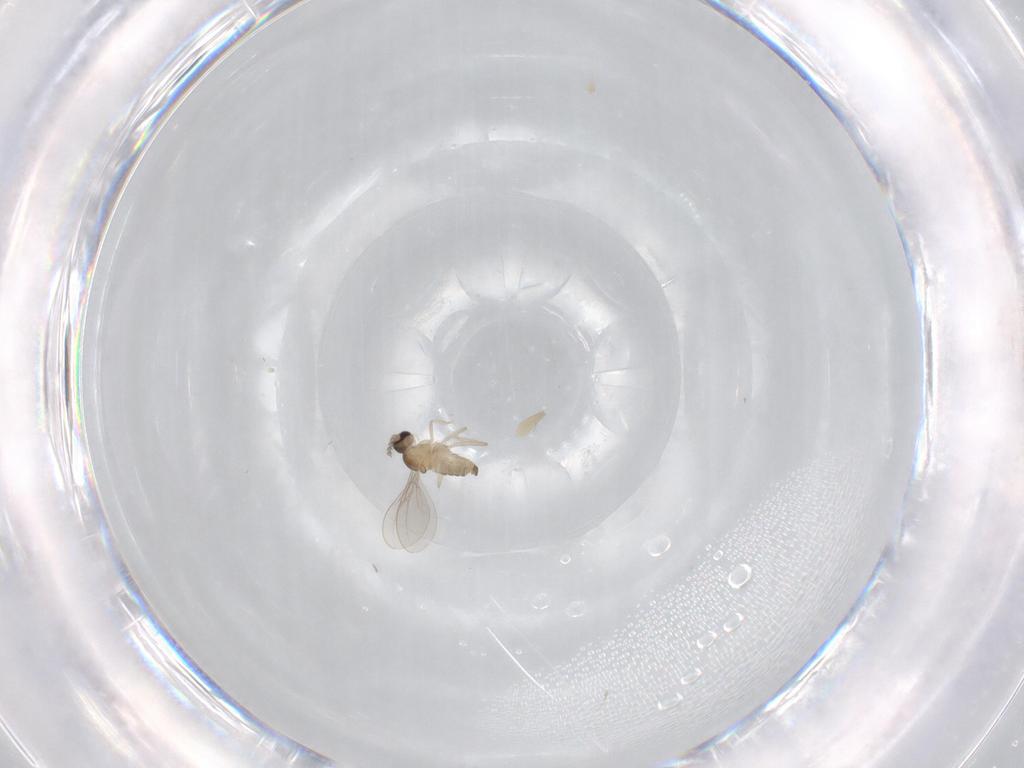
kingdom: Animalia
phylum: Arthropoda
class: Insecta
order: Diptera
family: Cecidomyiidae
